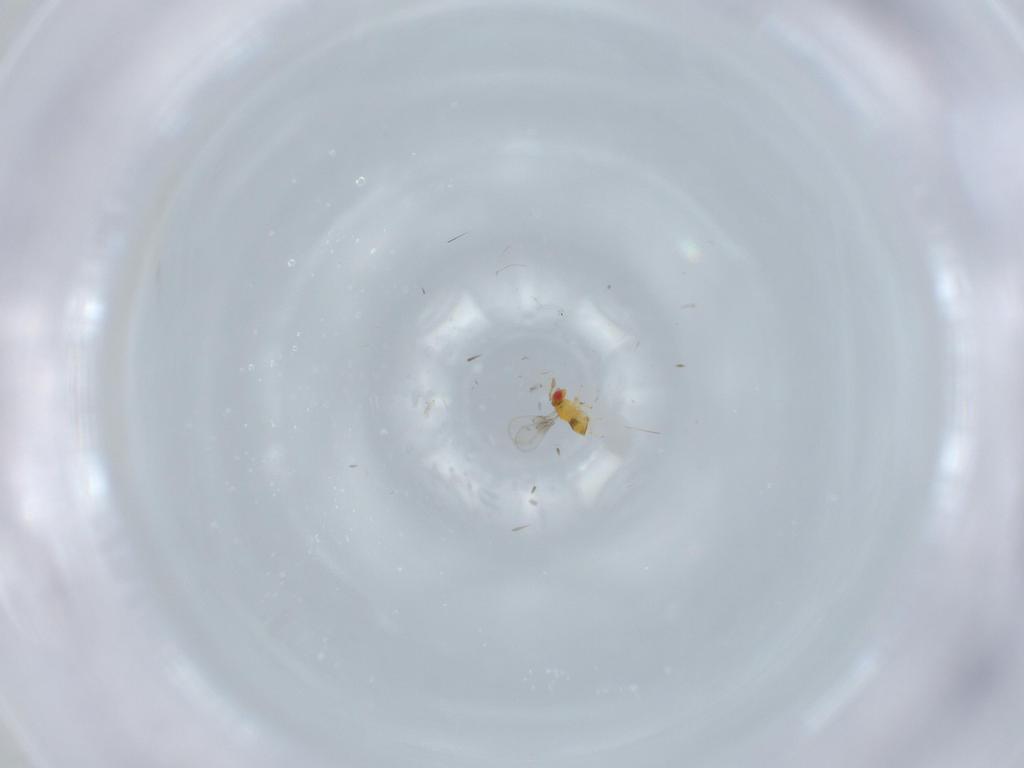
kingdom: Animalia
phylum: Arthropoda
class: Insecta
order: Hymenoptera
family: Trichogrammatidae
